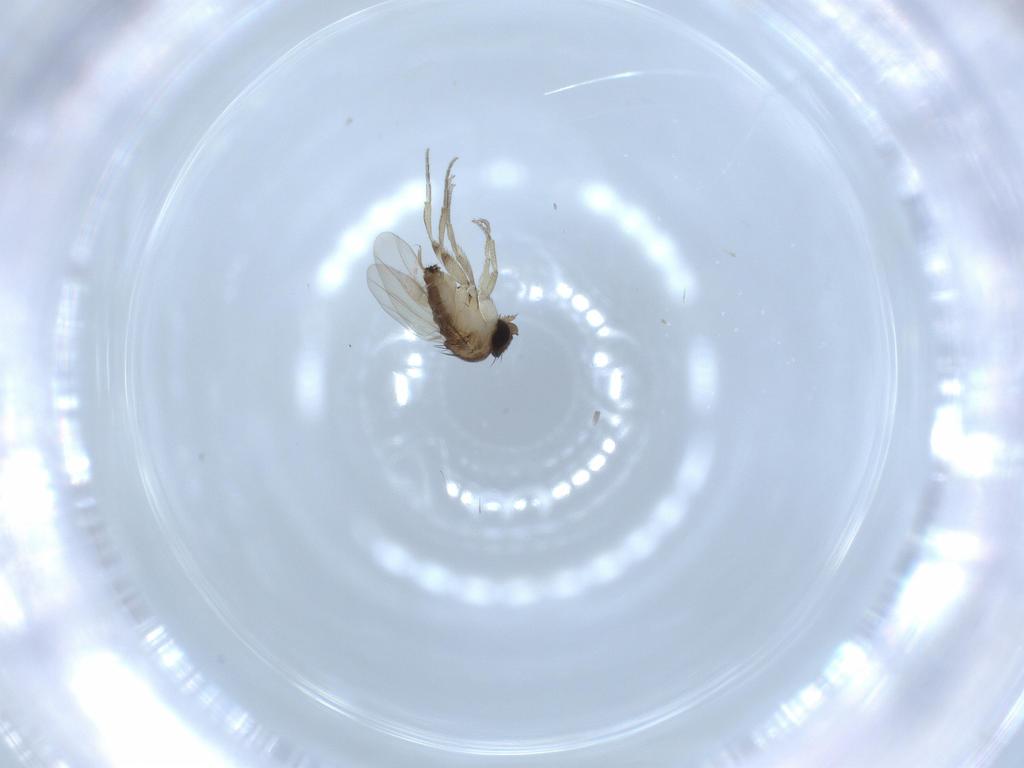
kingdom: Animalia
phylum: Arthropoda
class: Insecta
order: Diptera
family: Phoridae
